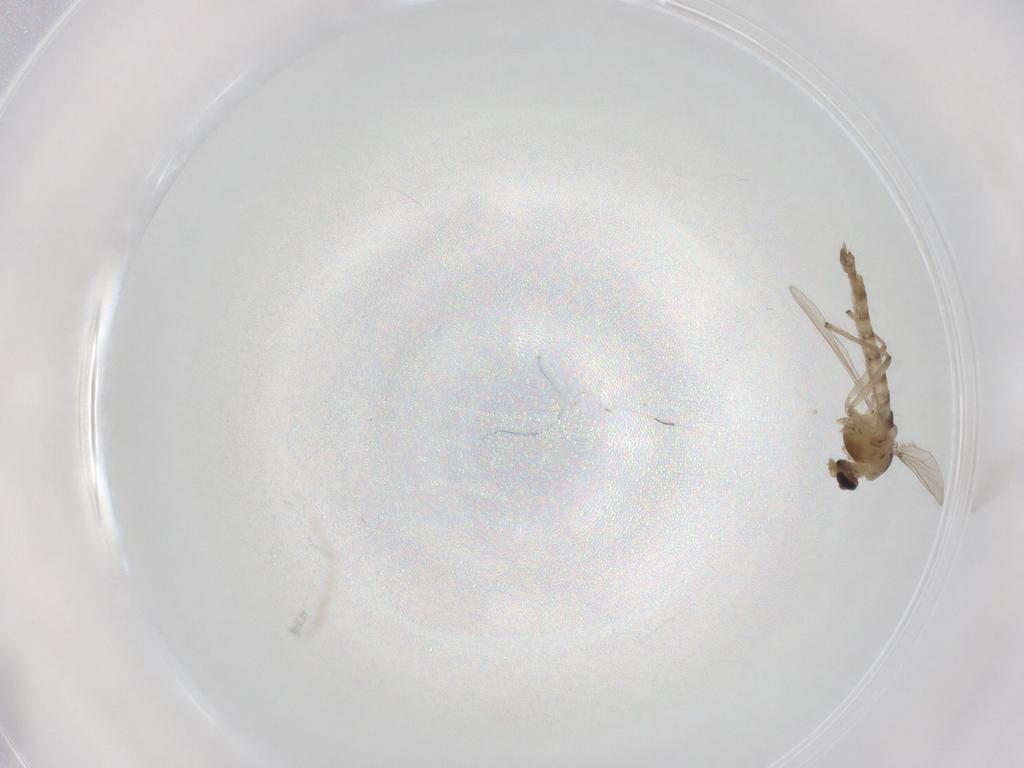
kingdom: Animalia
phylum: Arthropoda
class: Insecta
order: Diptera
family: Chironomidae
